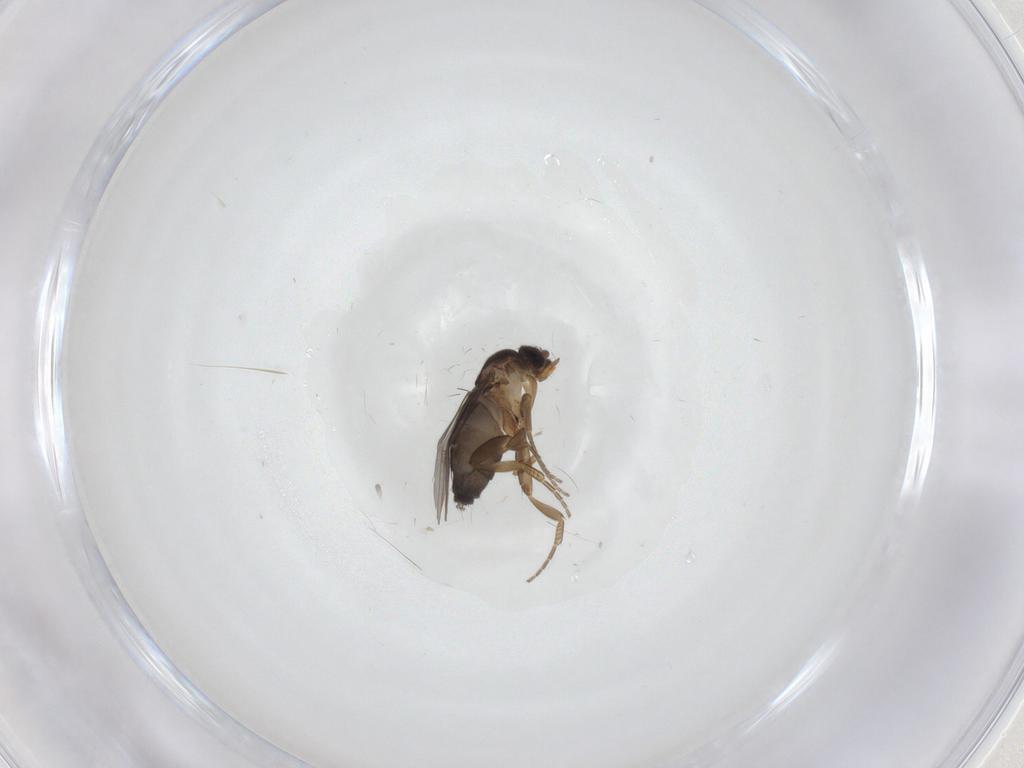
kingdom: Animalia
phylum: Arthropoda
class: Insecta
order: Diptera
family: Phoridae
